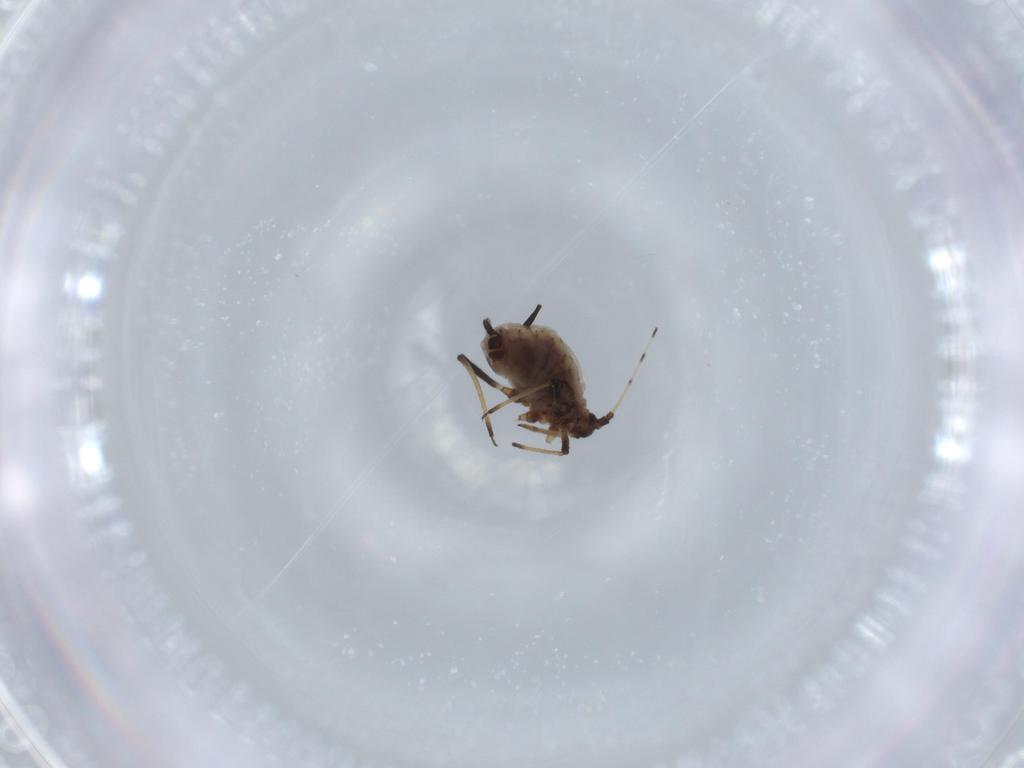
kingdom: Animalia
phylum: Arthropoda
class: Insecta
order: Hemiptera
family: Aphididae
